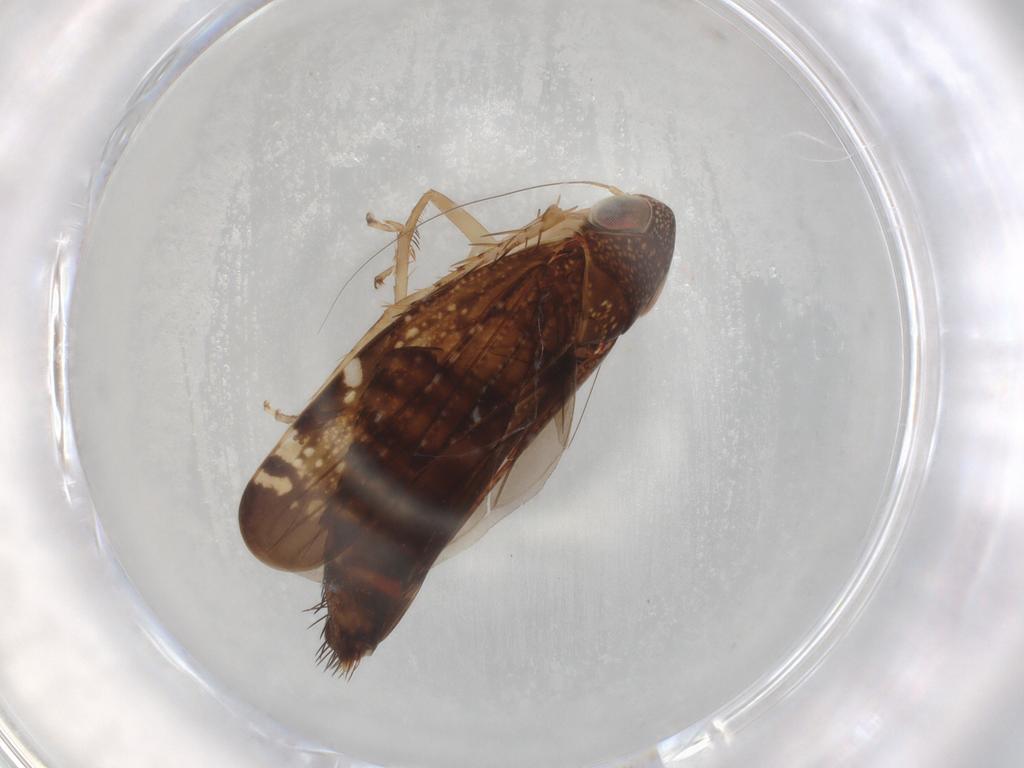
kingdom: Animalia
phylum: Arthropoda
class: Insecta
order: Hemiptera
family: Cicadellidae
